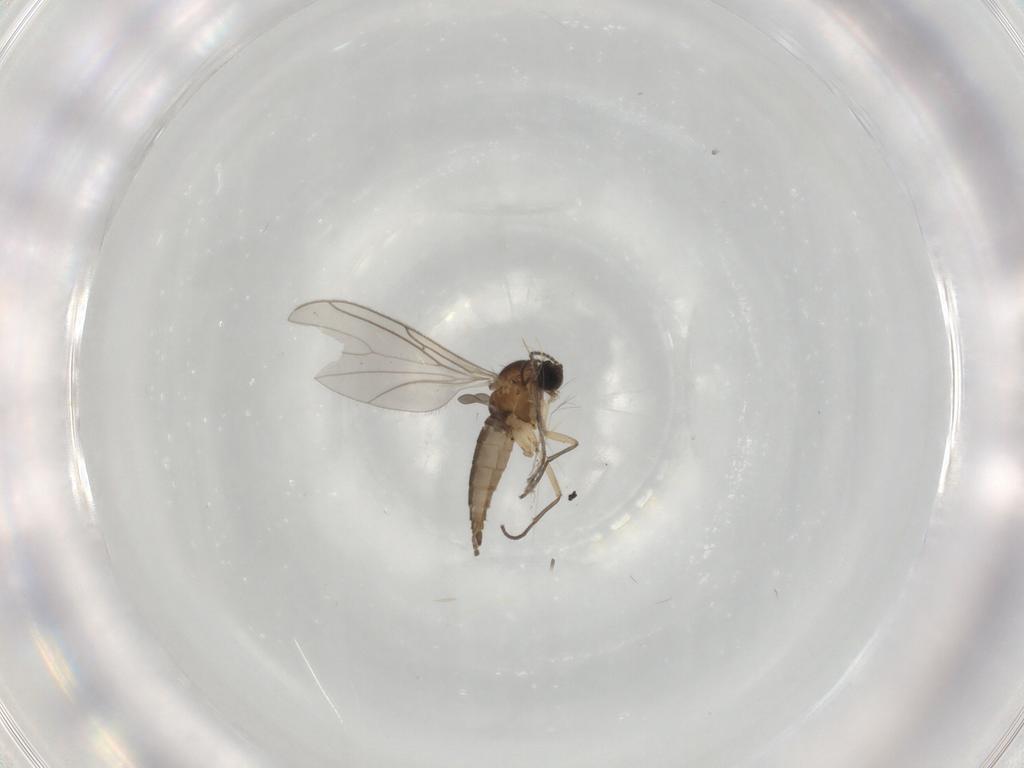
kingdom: Animalia
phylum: Arthropoda
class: Insecta
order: Diptera
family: Sciaridae
